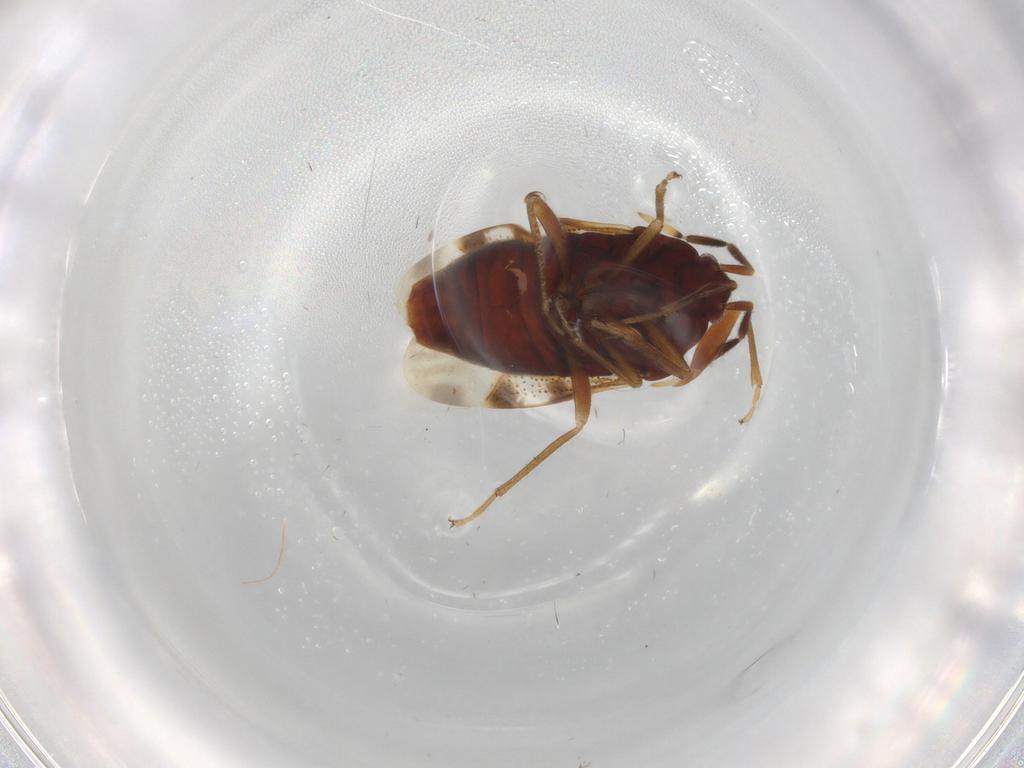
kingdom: Animalia
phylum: Arthropoda
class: Insecta
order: Hemiptera
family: Rhyparochromidae
